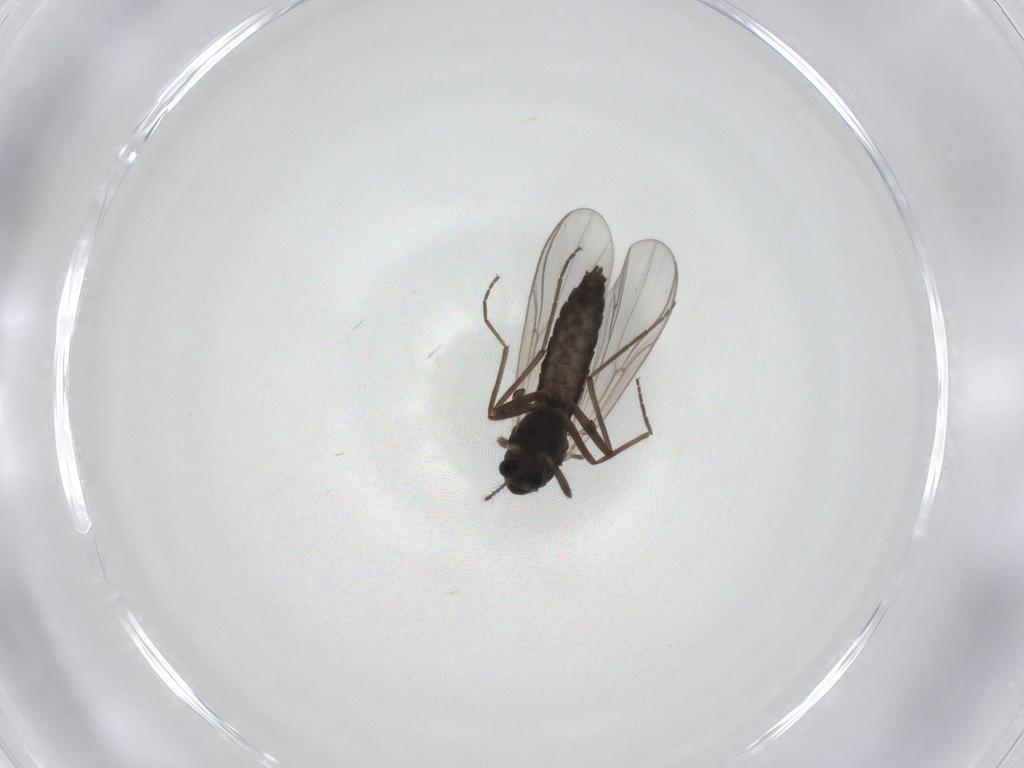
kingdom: Animalia
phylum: Arthropoda
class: Insecta
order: Diptera
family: Chironomidae
